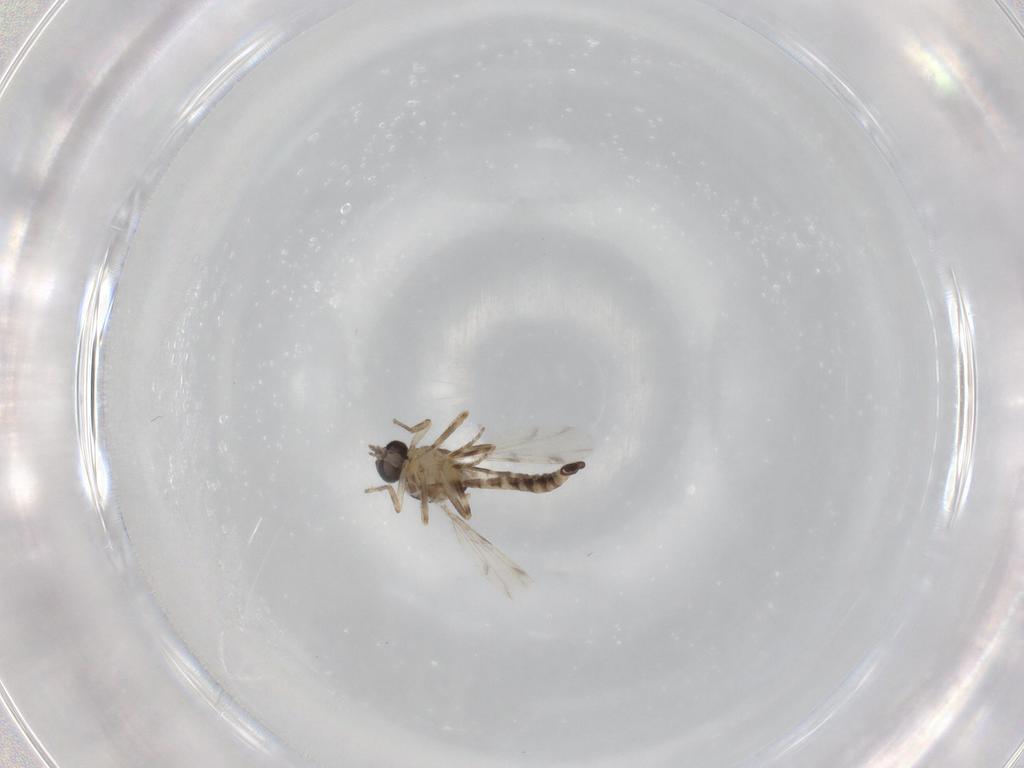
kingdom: Animalia
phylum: Arthropoda
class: Insecta
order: Diptera
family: Ceratopogonidae
